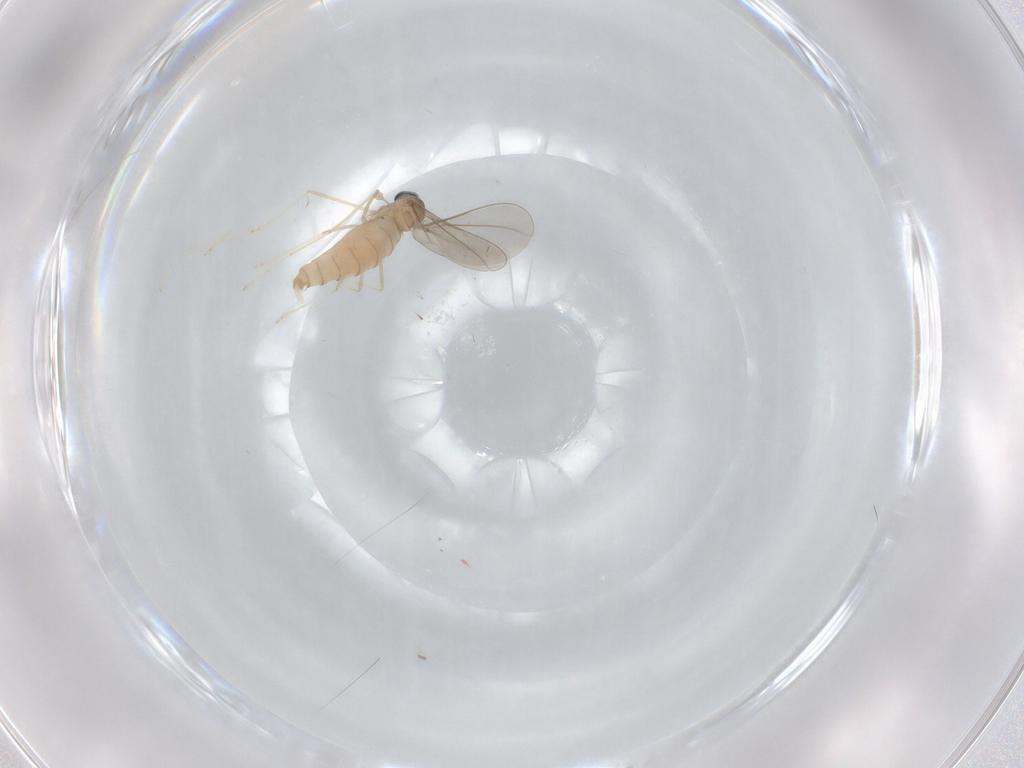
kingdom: Animalia
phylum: Arthropoda
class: Insecta
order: Diptera
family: Cecidomyiidae
